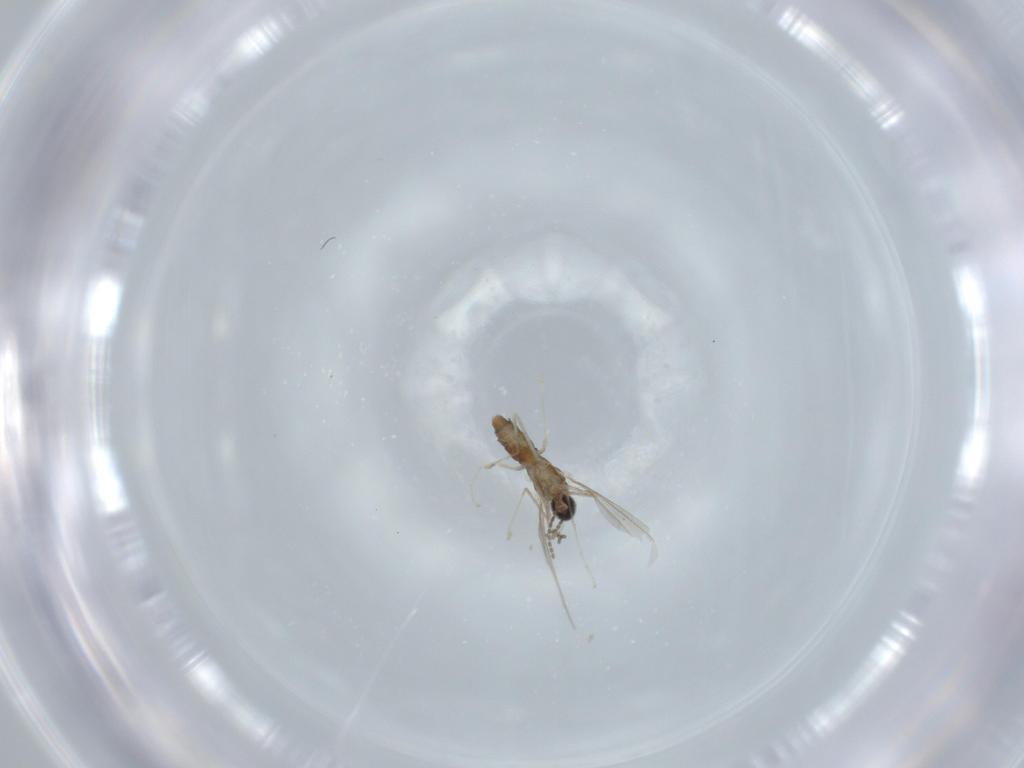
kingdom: Animalia
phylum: Arthropoda
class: Insecta
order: Diptera
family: Cecidomyiidae
